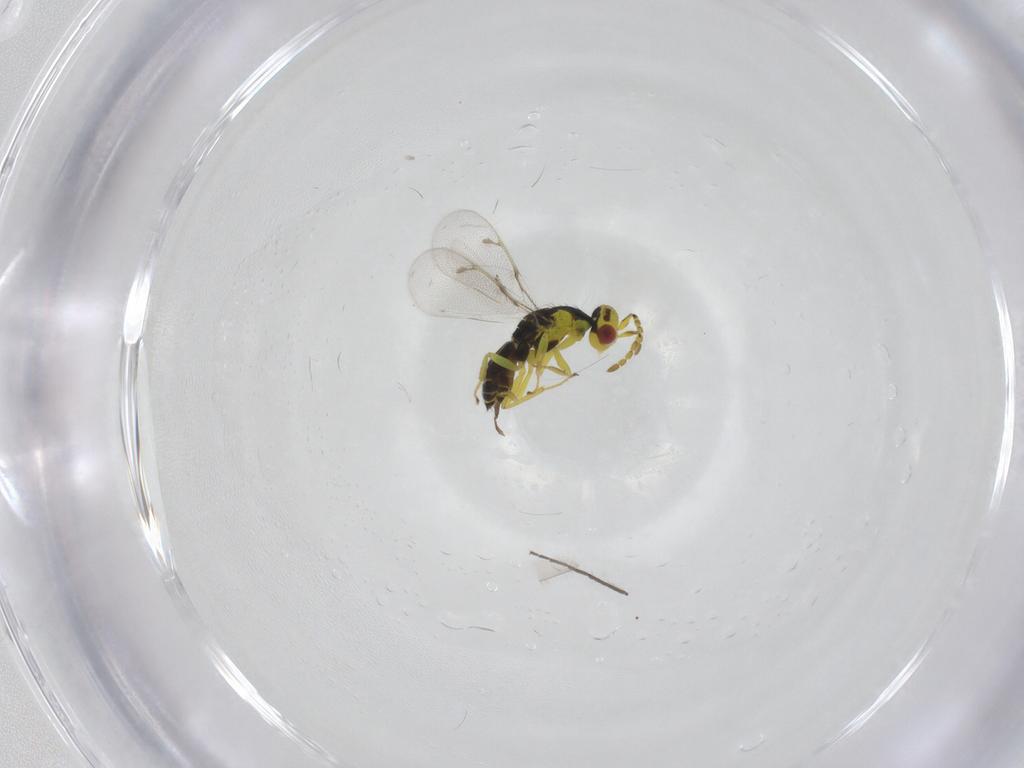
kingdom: Animalia
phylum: Arthropoda
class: Insecta
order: Hymenoptera
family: Eulophidae
